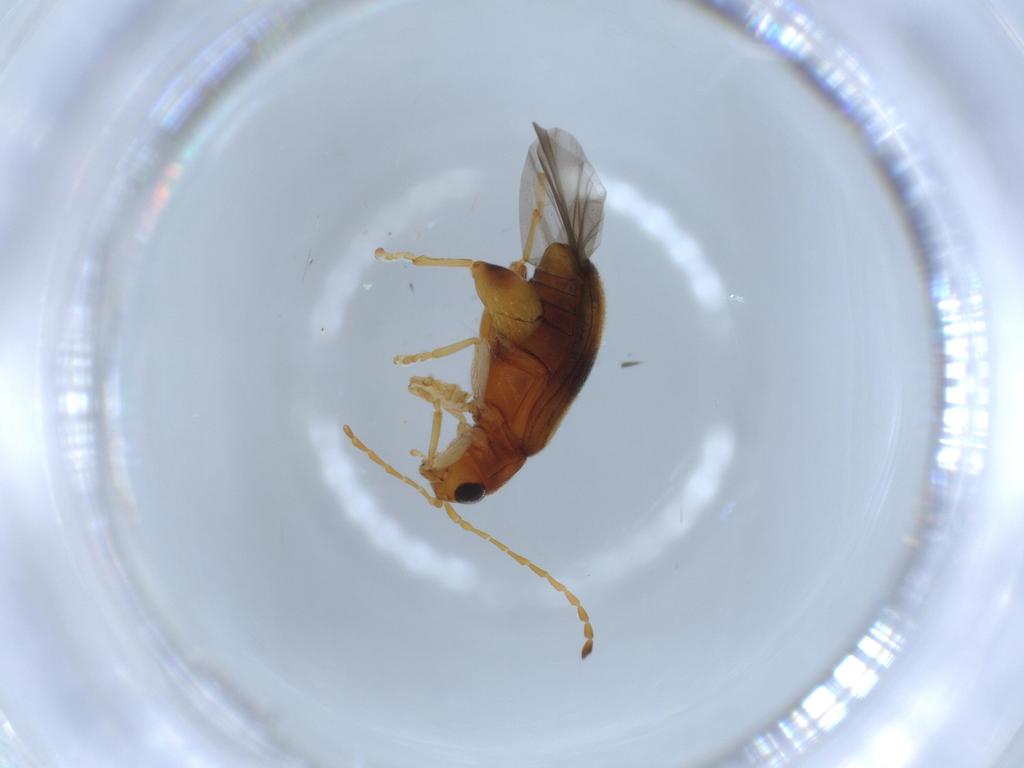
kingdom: Animalia
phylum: Arthropoda
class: Insecta
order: Coleoptera
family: Chrysomelidae
